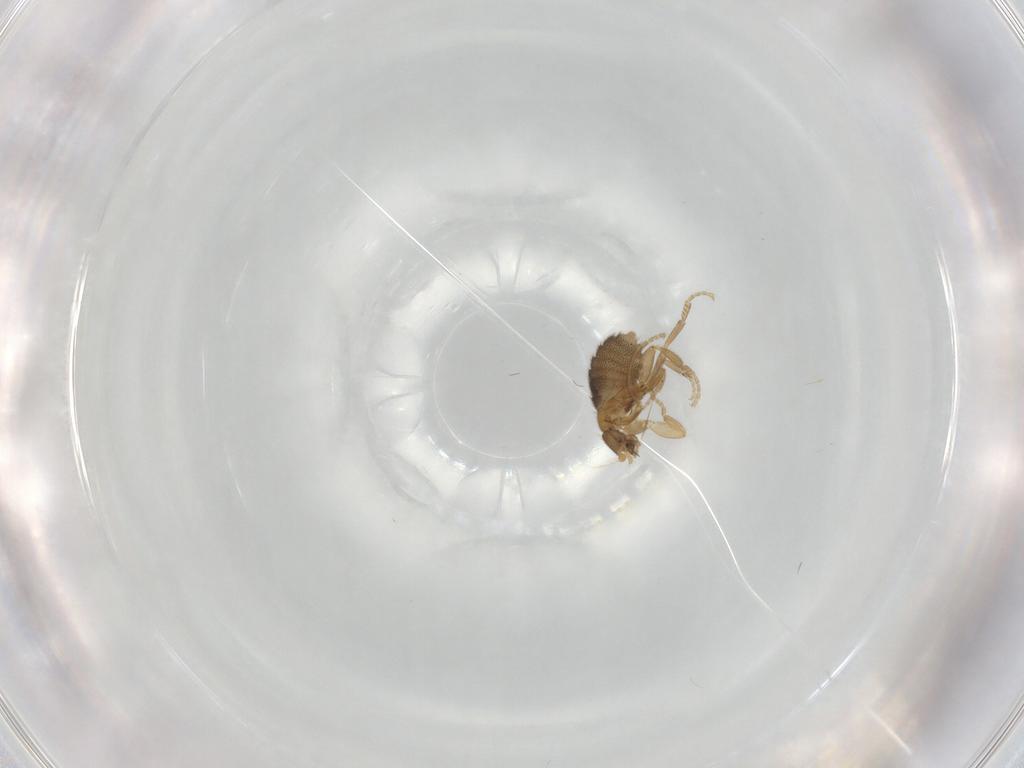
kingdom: Animalia
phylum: Arthropoda
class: Insecta
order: Diptera
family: Phoridae
